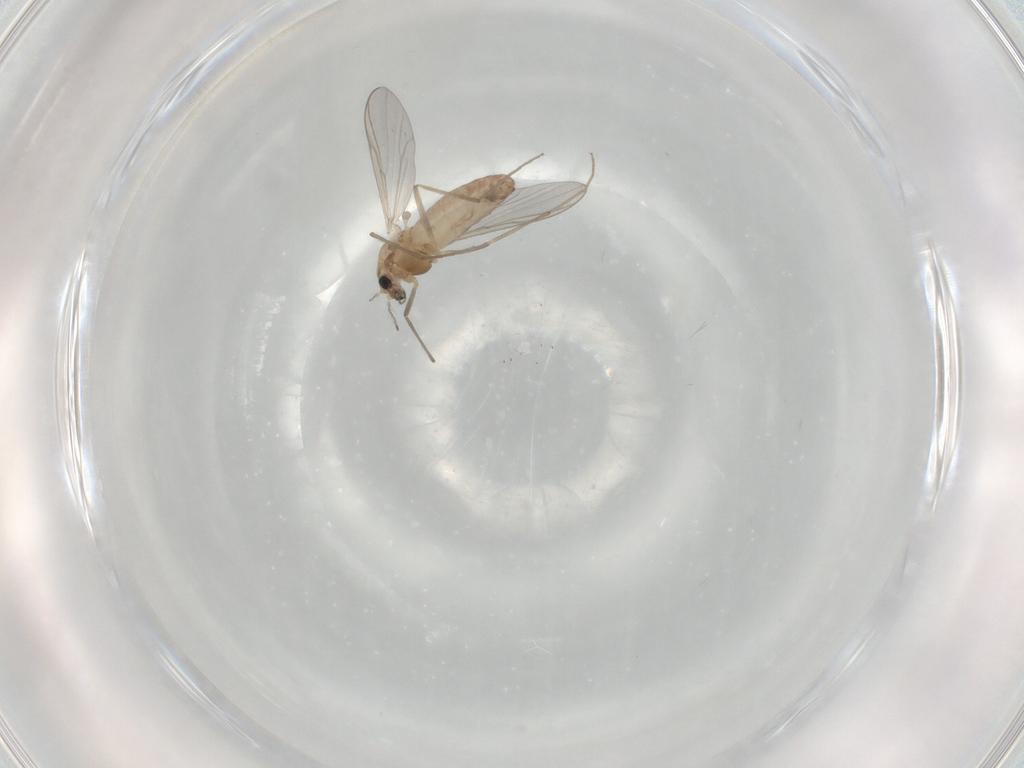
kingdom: Animalia
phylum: Arthropoda
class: Insecta
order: Diptera
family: Chironomidae
